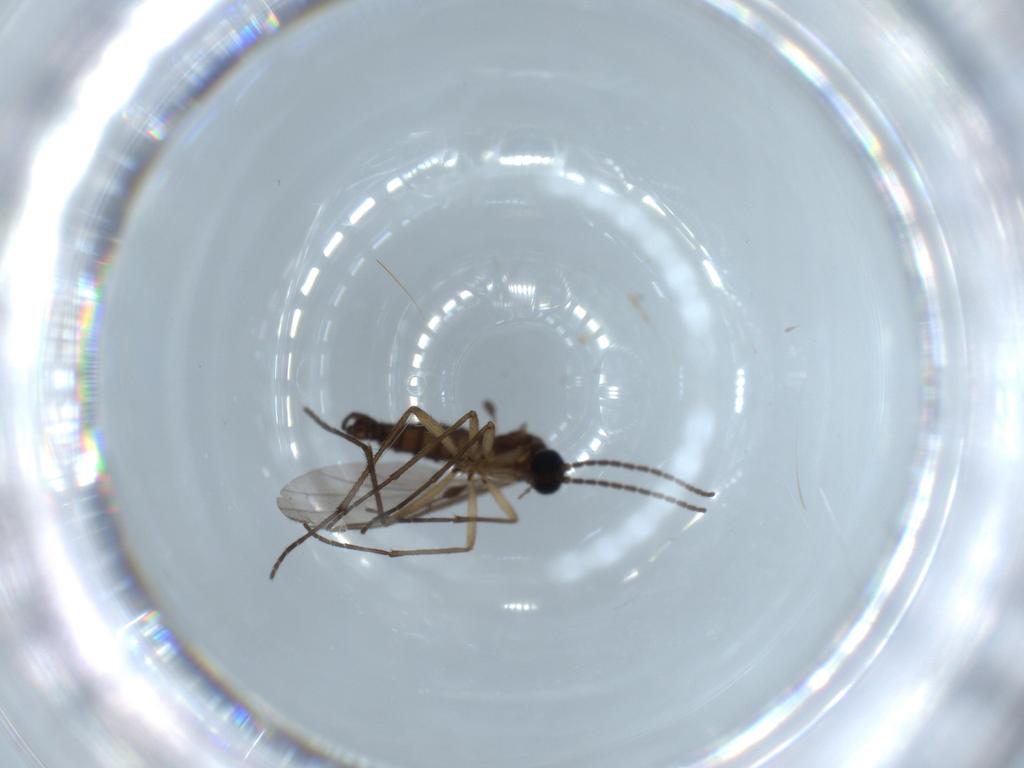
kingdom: Animalia
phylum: Arthropoda
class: Insecta
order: Diptera
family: Sciaridae
